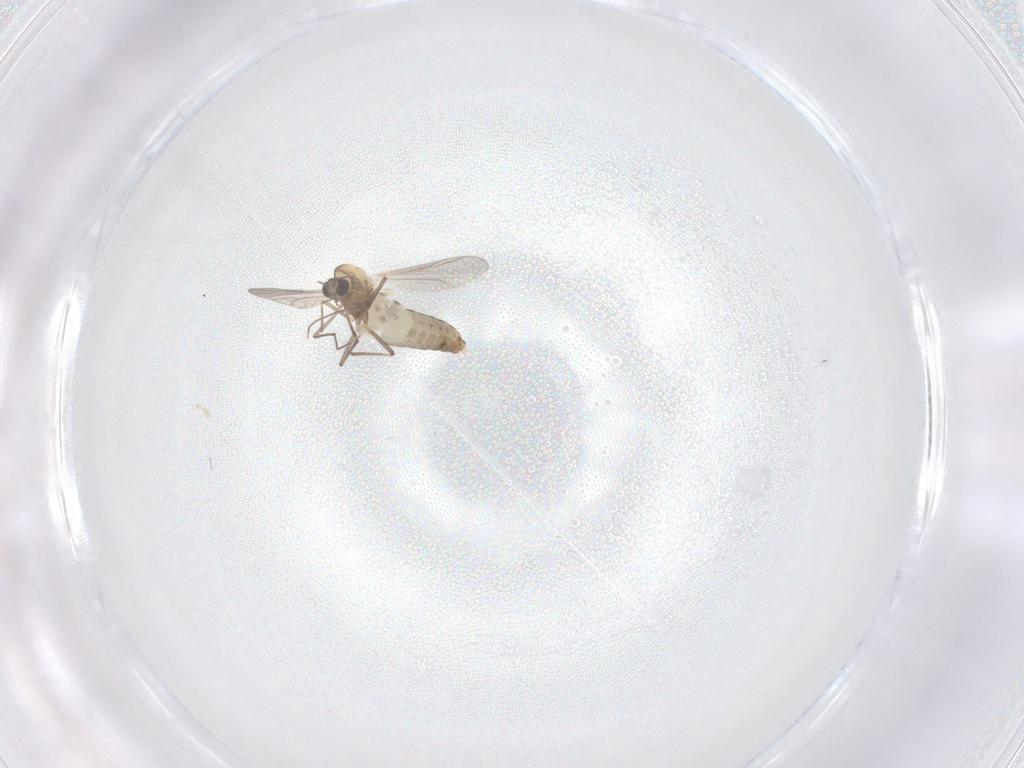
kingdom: Animalia
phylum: Arthropoda
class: Insecta
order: Diptera
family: Chironomidae
